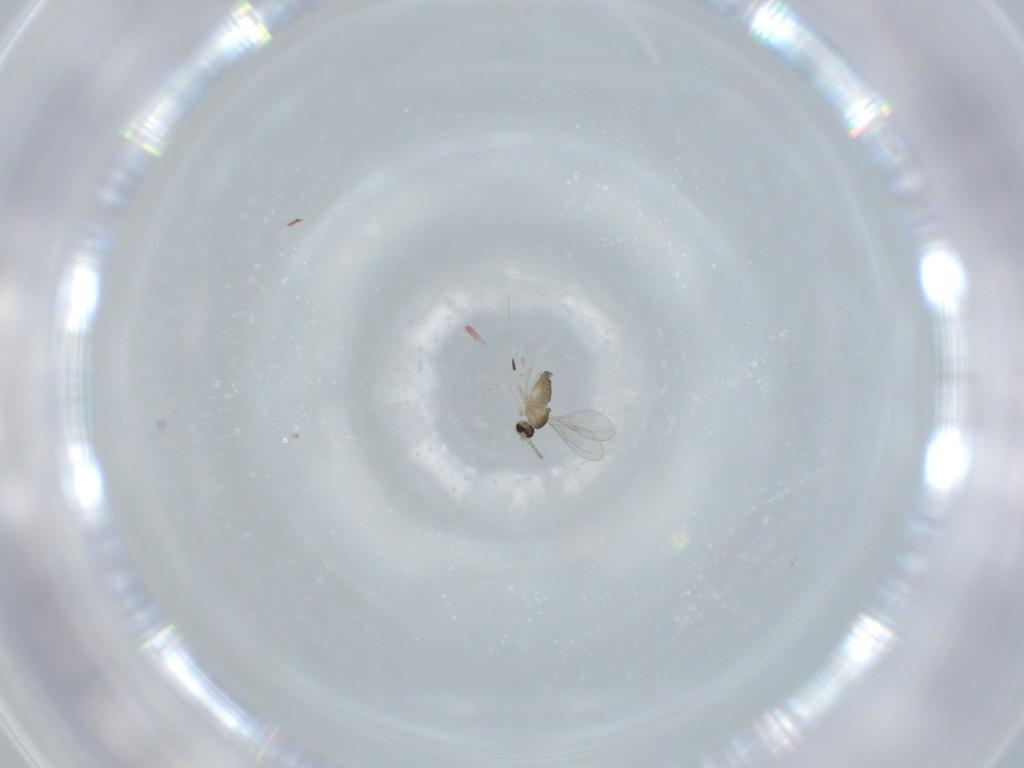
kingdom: Animalia
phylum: Arthropoda
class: Insecta
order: Diptera
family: Cecidomyiidae
